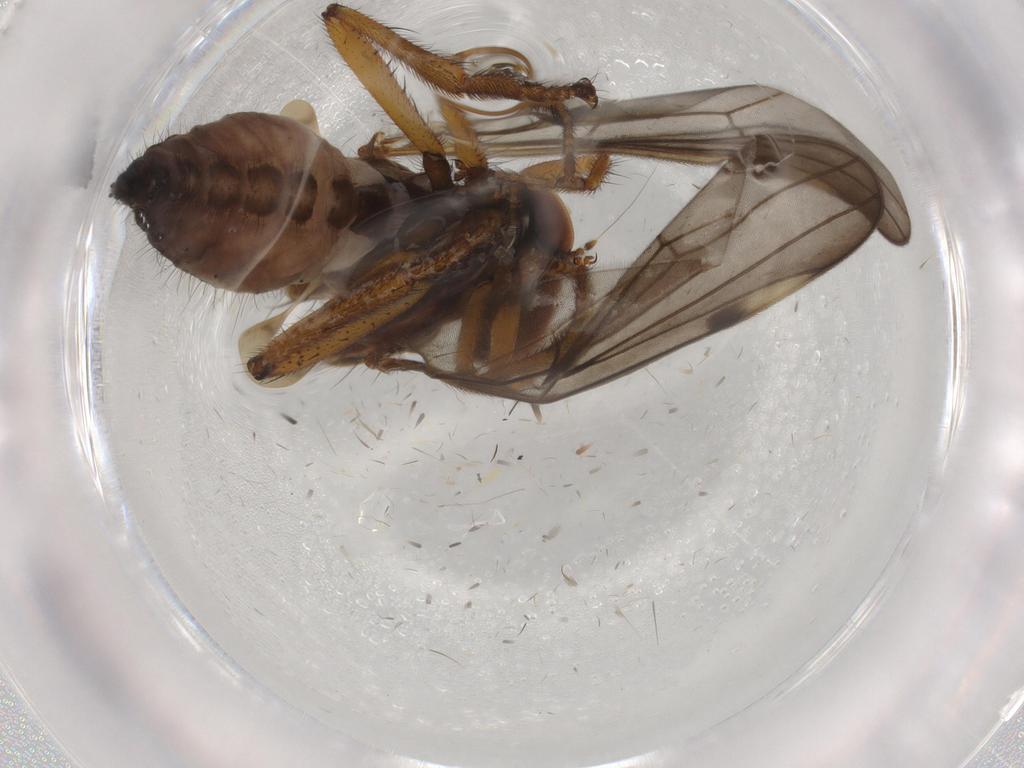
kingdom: Animalia
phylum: Arthropoda
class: Insecta
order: Diptera
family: Hybotidae
